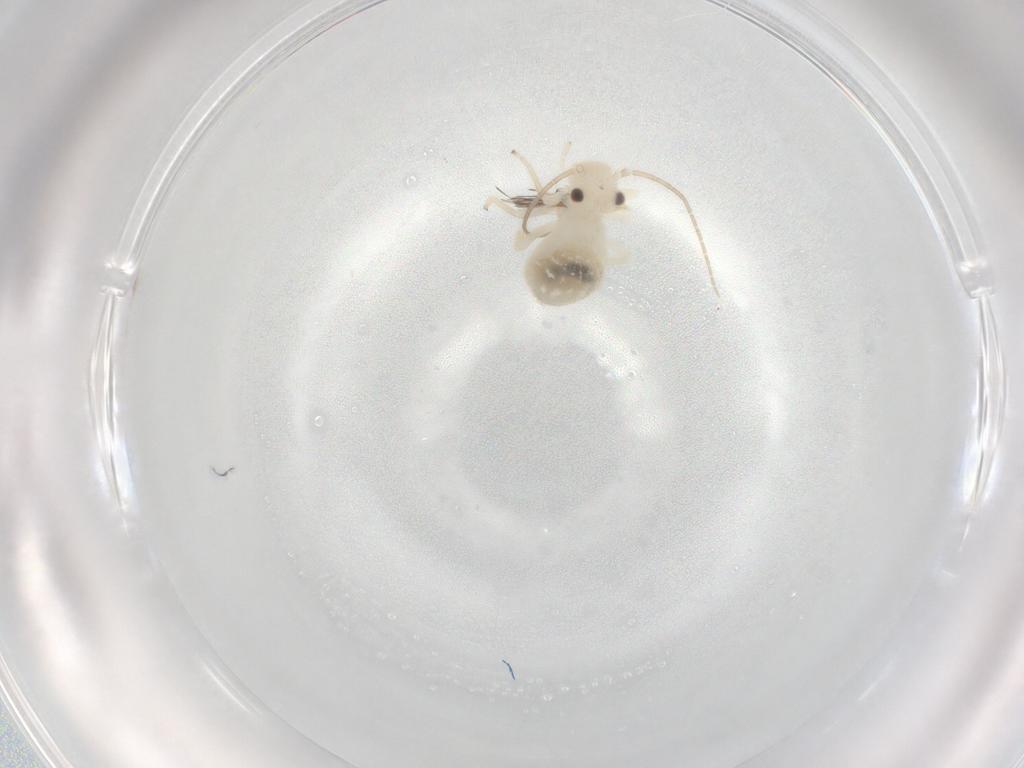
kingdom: Animalia
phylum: Arthropoda
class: Insecta
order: Psocodea
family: Philotarsidae
